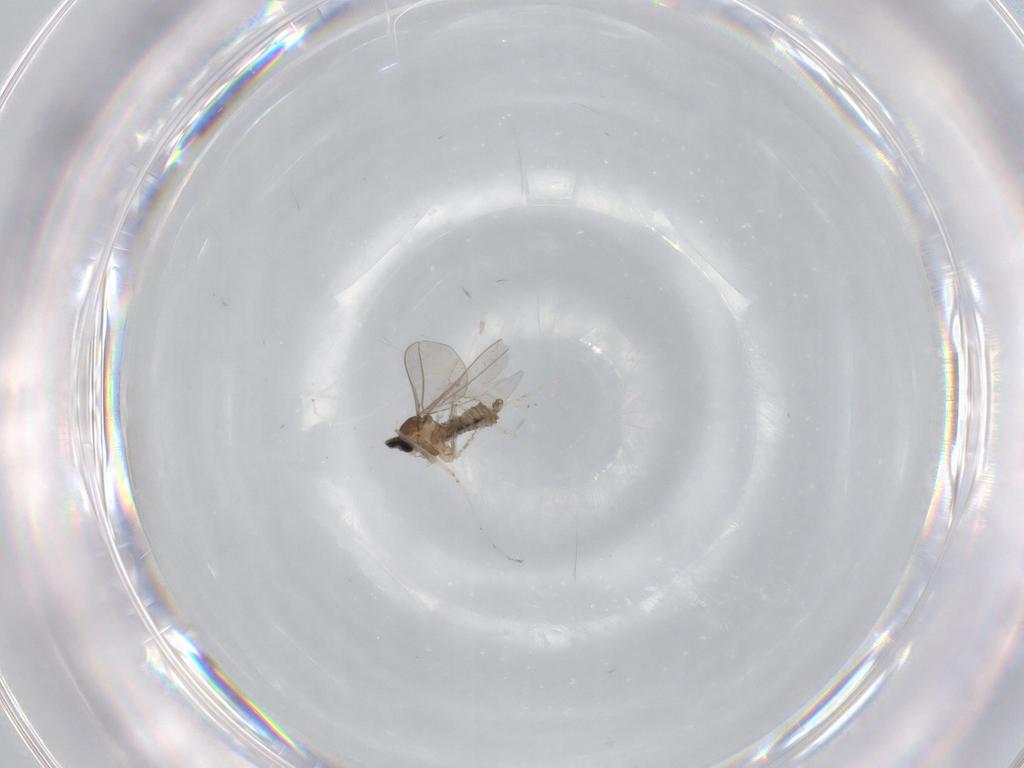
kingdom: Animalia
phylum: Arthropoda
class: Insecta
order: Diptera
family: Cecidomyiidae
